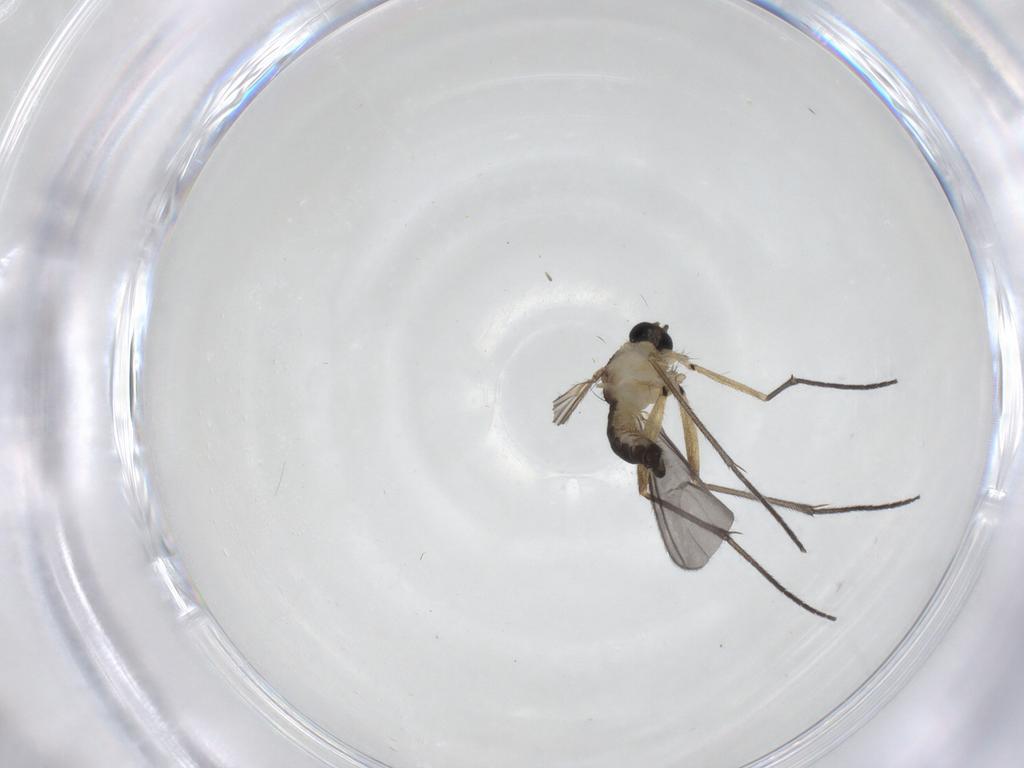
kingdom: Animalia
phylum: Arthropoda
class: Insecta
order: Diptera
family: Sciaridae
